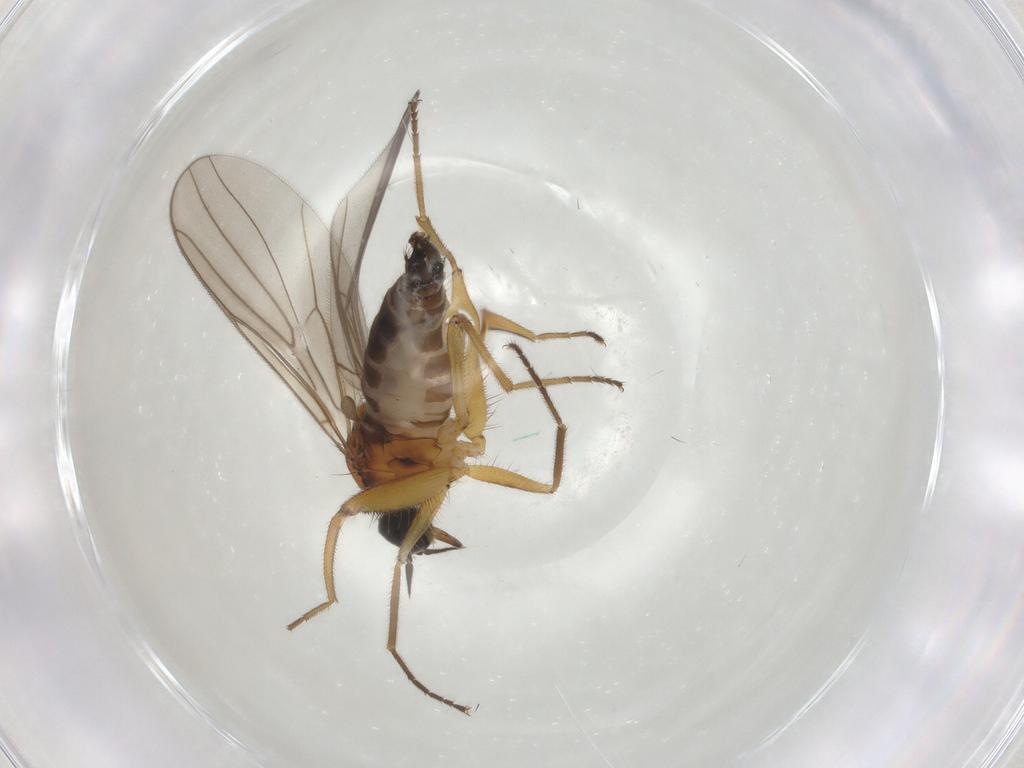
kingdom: Animalia
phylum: Arthropoda
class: Insecta
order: Diptera
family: Hybotidae
